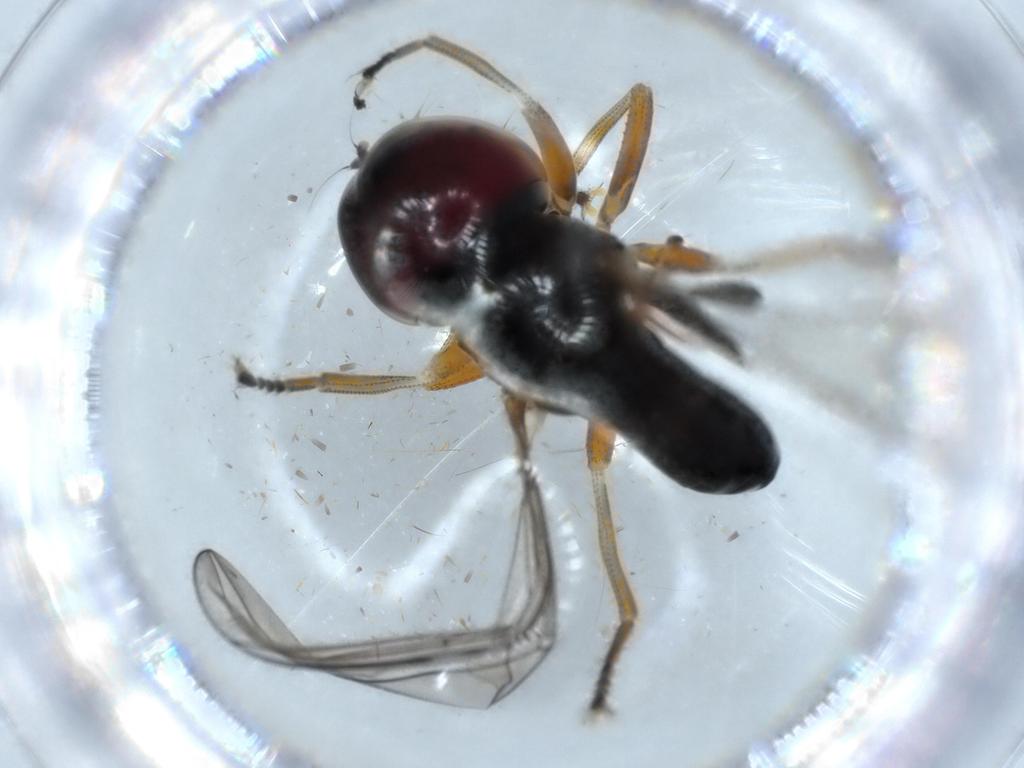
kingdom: Animalia
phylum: Arthropoda
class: Insecta
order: Diptera
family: Pipunculidae
